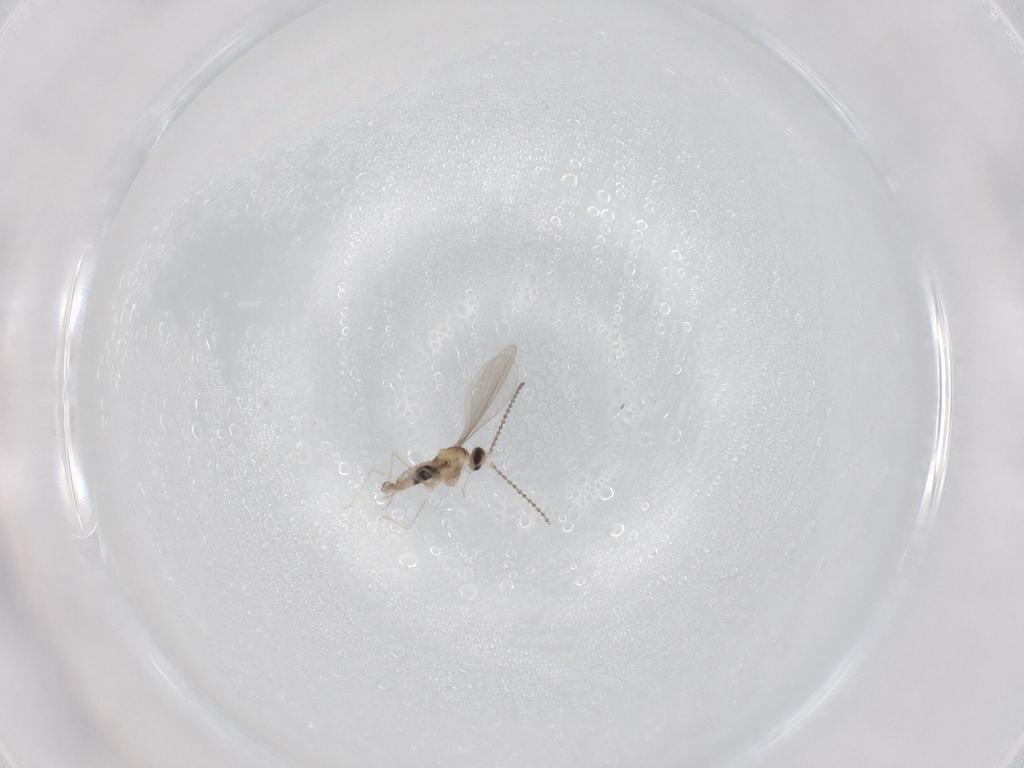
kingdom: Animalia
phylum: Arthropoda
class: Insecta
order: Diptera
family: Cecidomyiidae
